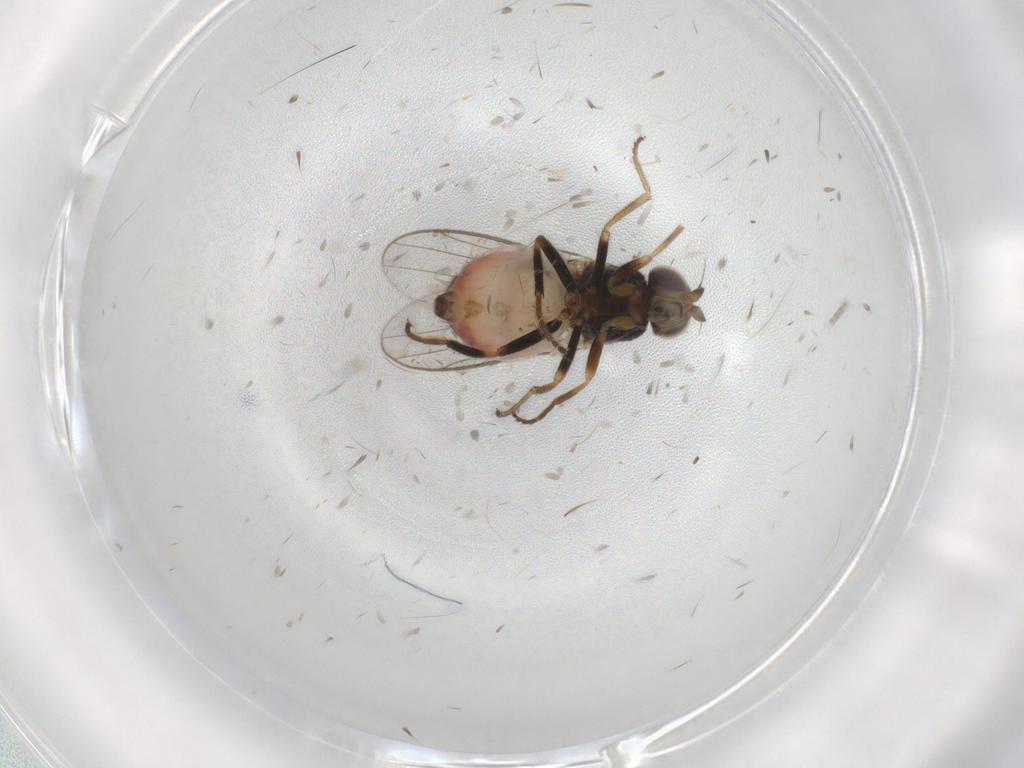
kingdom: Animalia
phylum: Arthropoda
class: Insecta
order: Diptera
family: Chloropidae
